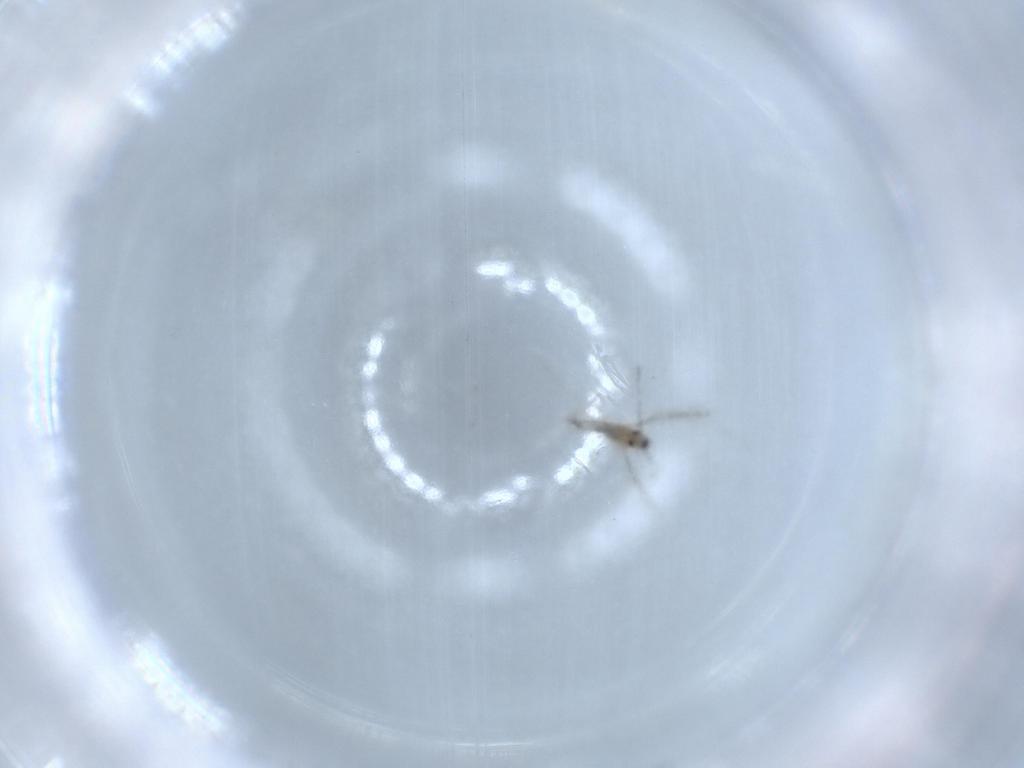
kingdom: Animalia
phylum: Arthropoda
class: Insecta
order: Diptera
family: Cecidomyiidae
